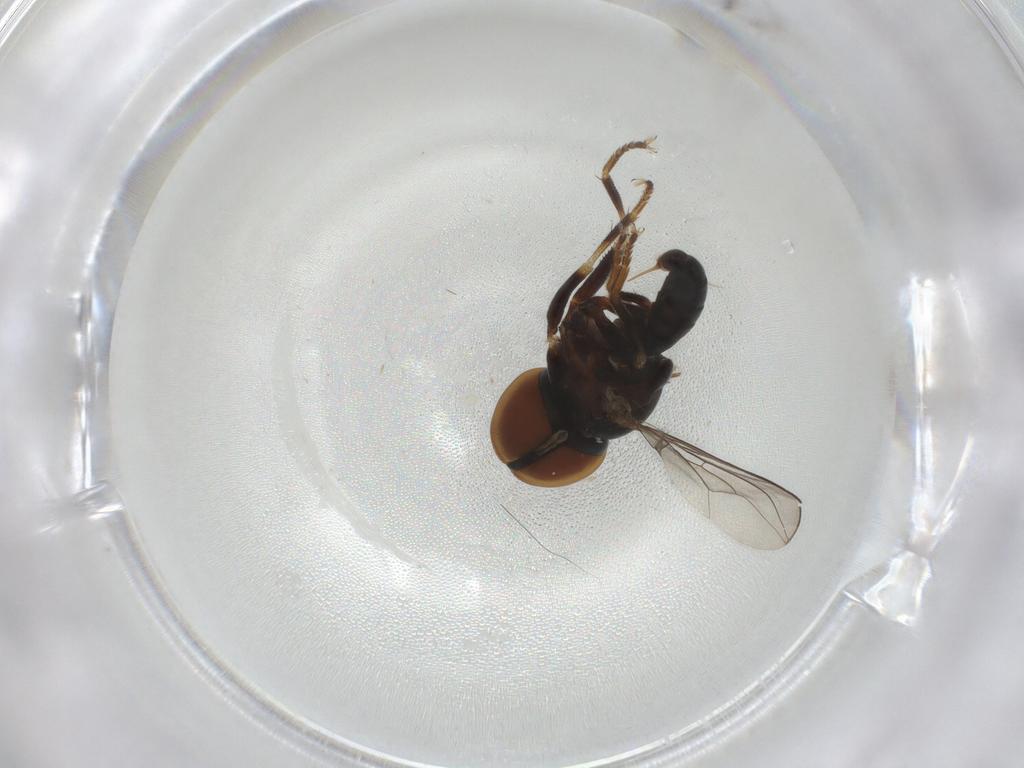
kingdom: Animalia
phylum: Arthropoda
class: Insecta
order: Diptera
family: Pipunculidae
